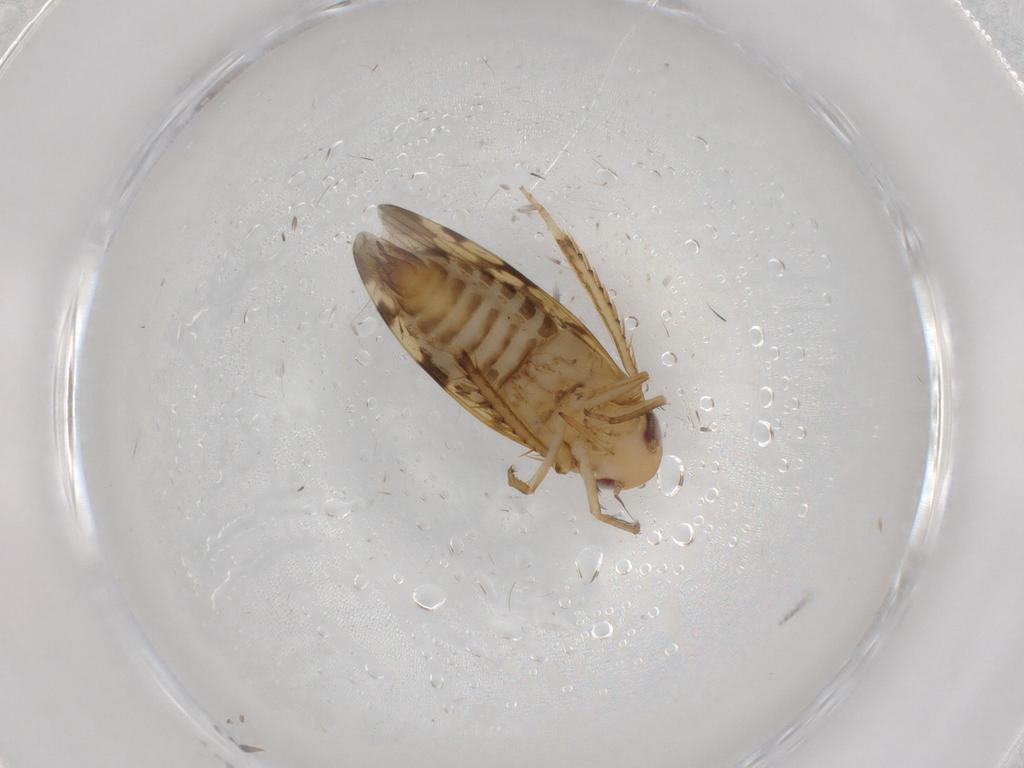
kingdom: Animalia
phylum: Arthropoda
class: Insecta
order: Hemiptera
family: Cicadellidae
